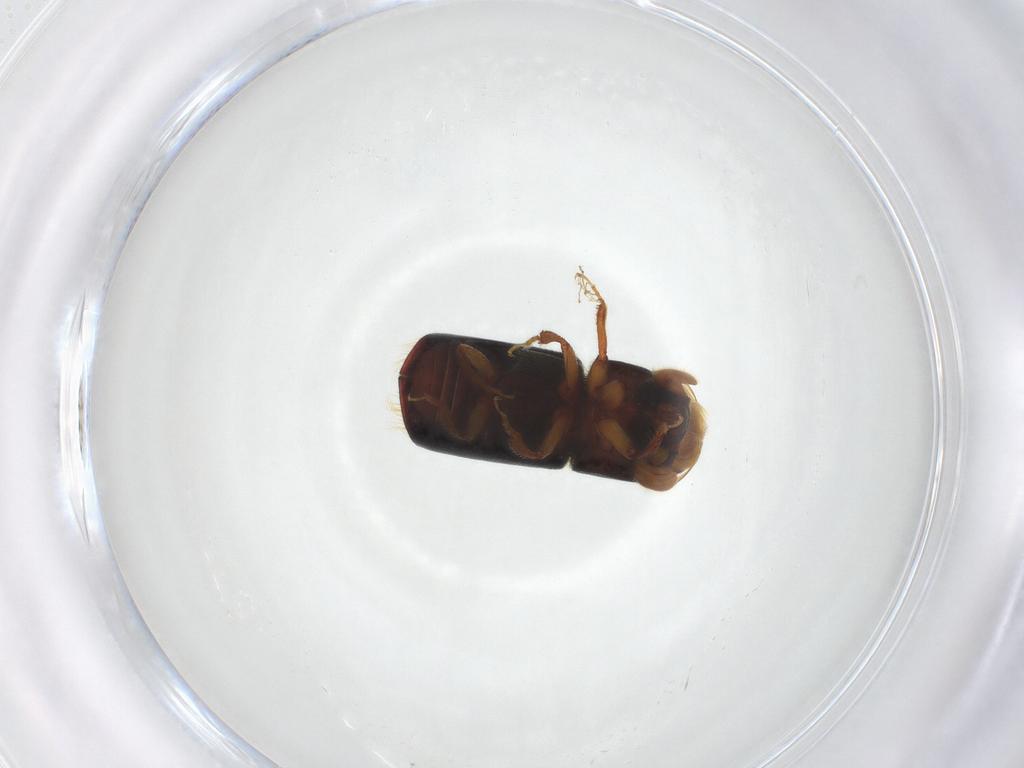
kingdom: Animalia
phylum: Arthropoda
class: Insecta
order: Coleoptera
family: Curculionidae
